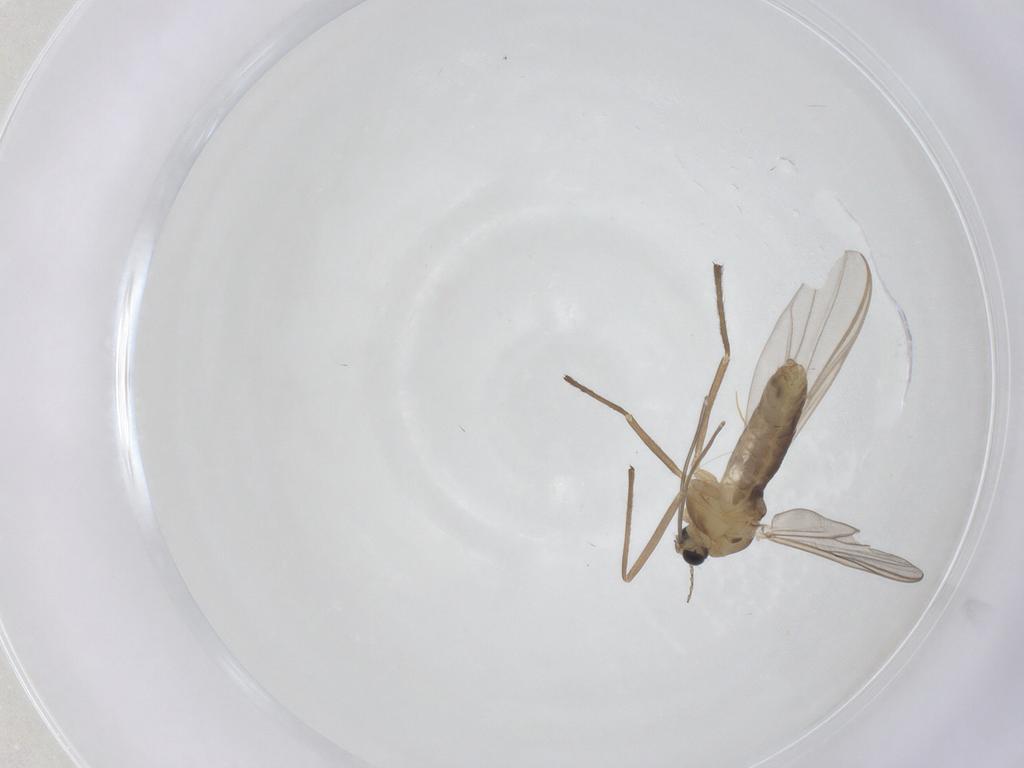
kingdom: Animalia
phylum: Arthropoda
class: Insecta
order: Diptera
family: Chironomidae
